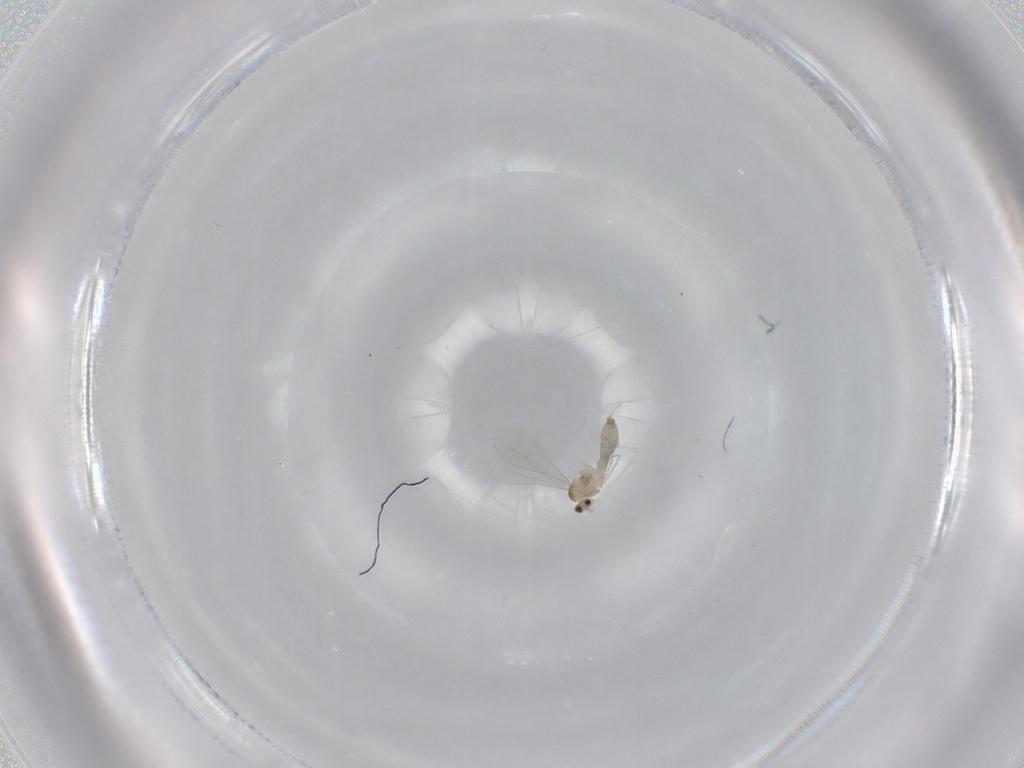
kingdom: Animalia
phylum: Arthropoda
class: Insecta
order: Diptera
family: Cecidomyiidae
